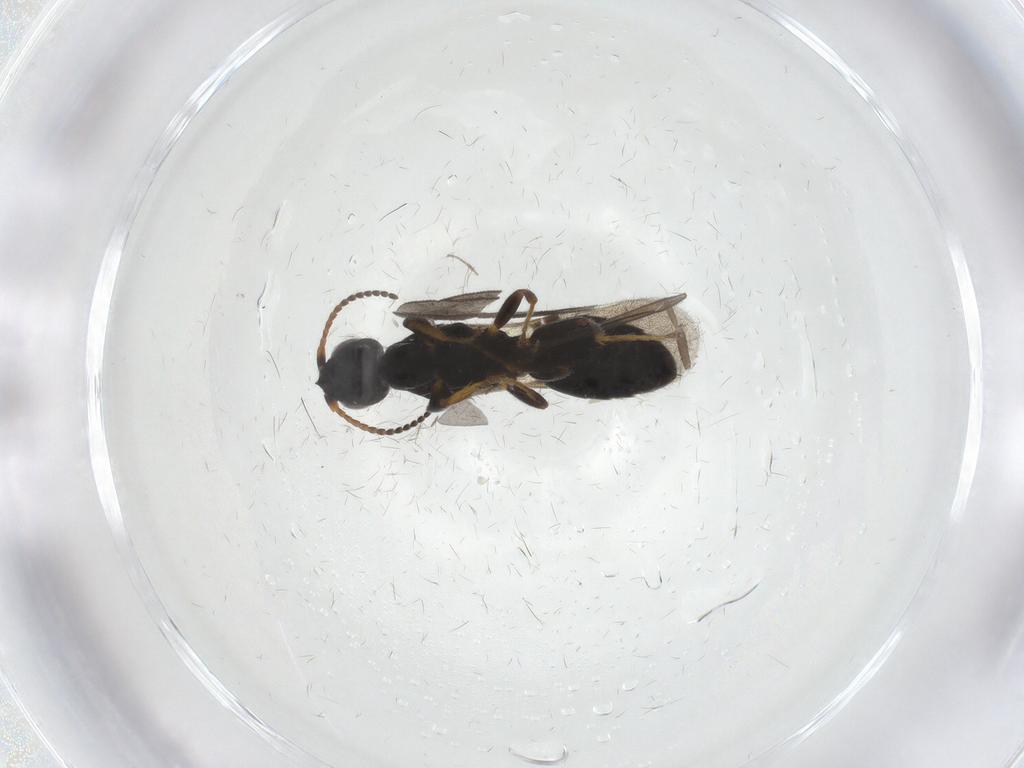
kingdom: Animalia
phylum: Arthropoda
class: Insecta
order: Hymenoptera
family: Bethylidae
